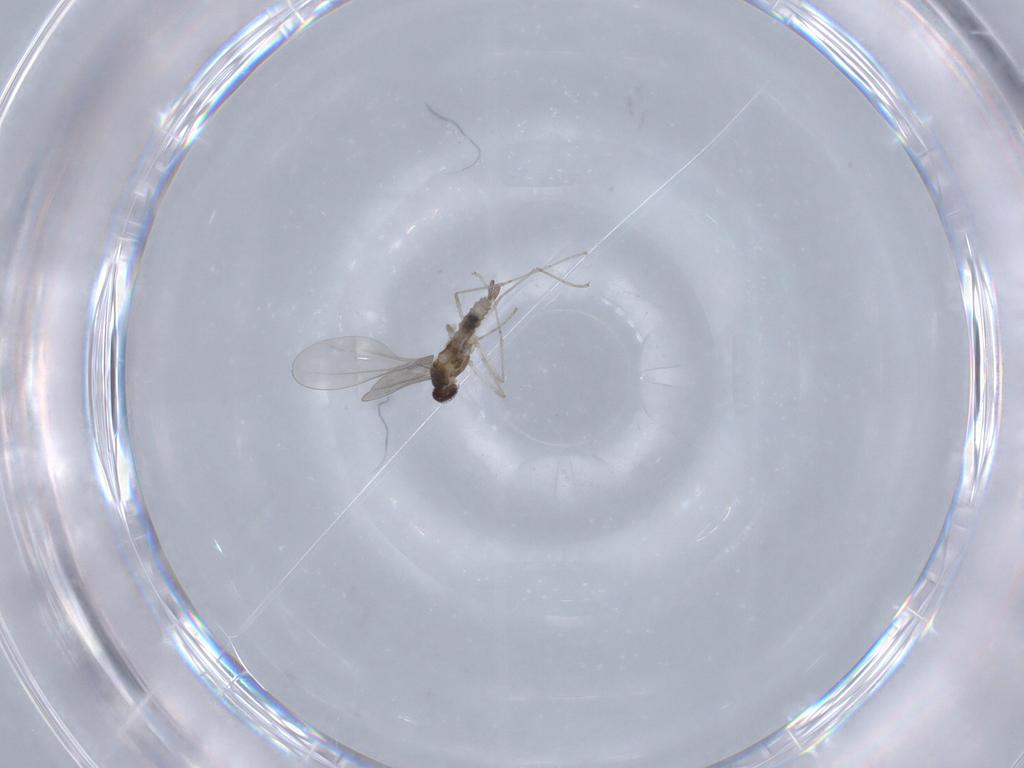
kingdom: Animalia
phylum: Arthropoda
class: Insecta
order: Diptera
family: Cecidomyiidae
